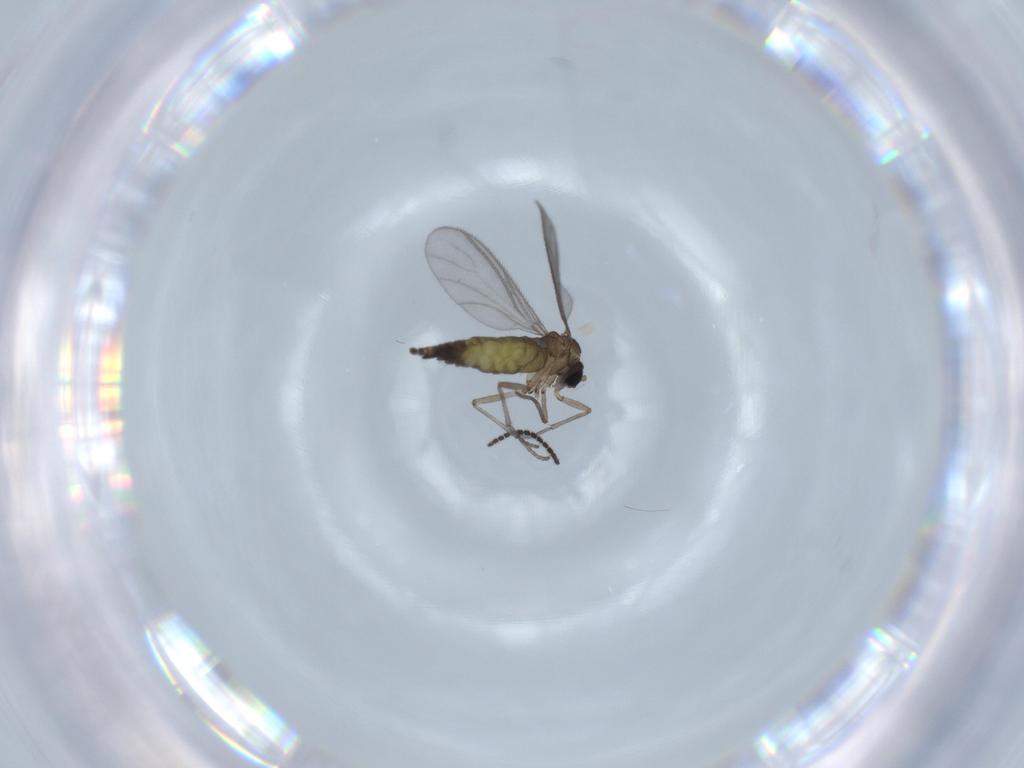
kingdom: Animalia
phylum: Arthropoda
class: Insecta
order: Diptera
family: Sciaridae
